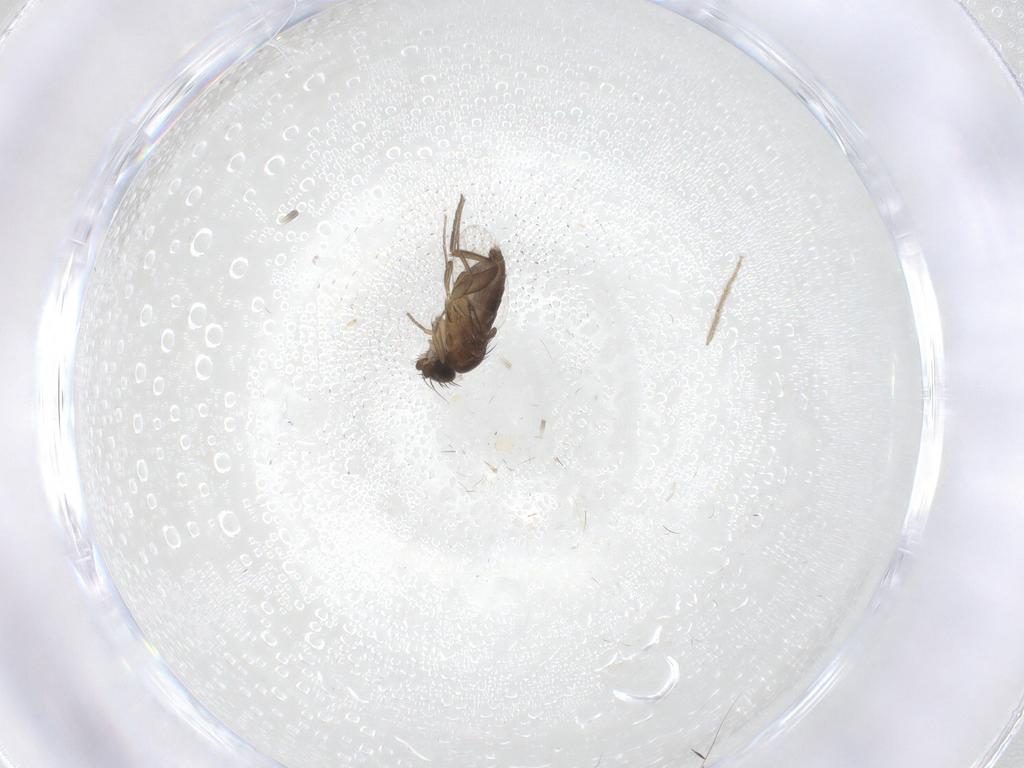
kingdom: Animalia
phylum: Arthropoda
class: Insecta
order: Diptera
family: Phoridae
